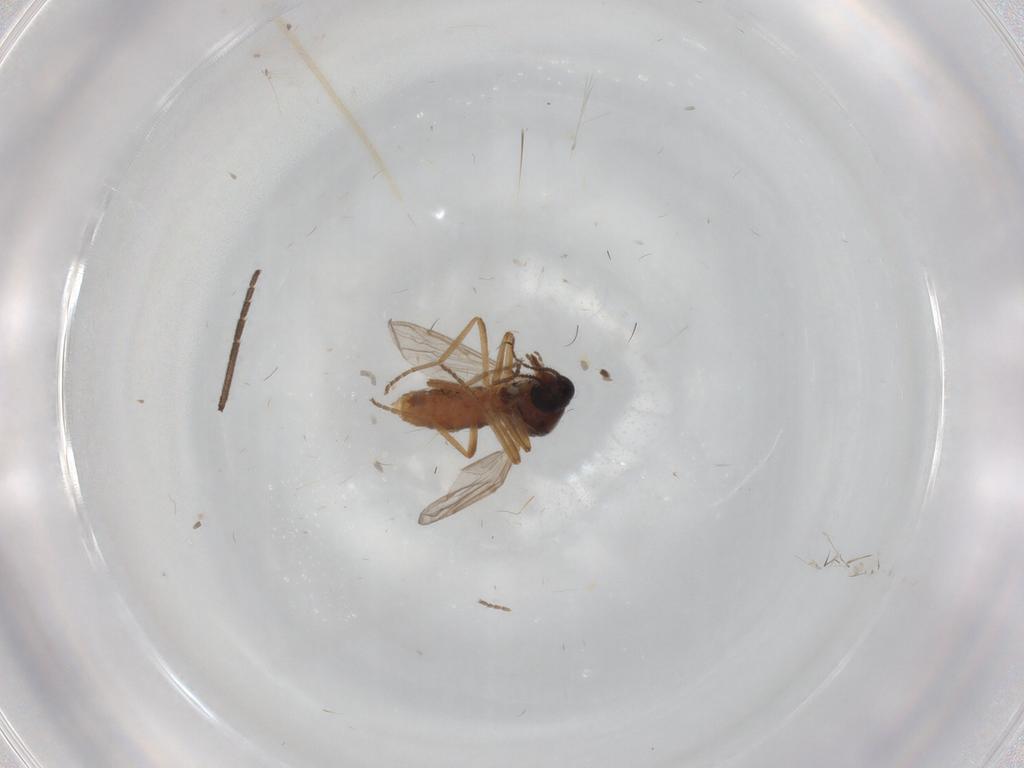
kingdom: Animalia
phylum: Arthropoda
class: Insecta
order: Diptera
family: Ceratopogonidae
